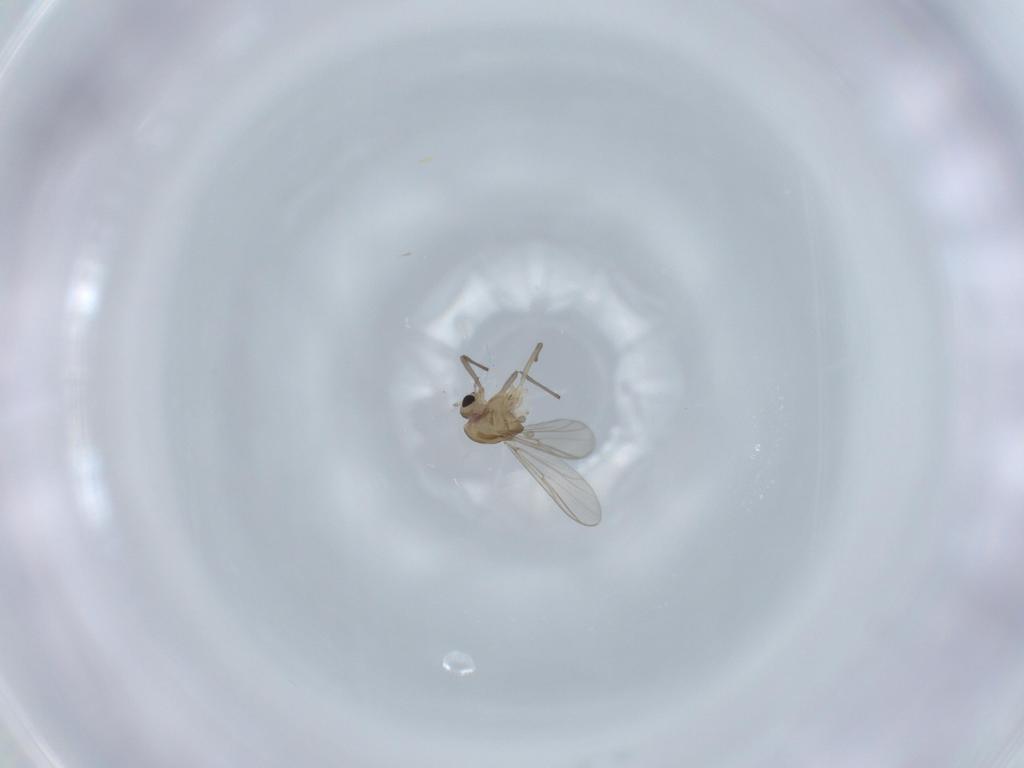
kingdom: Animalia
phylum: Arthropoda
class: Insecta
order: Diptera
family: Chironomidae
